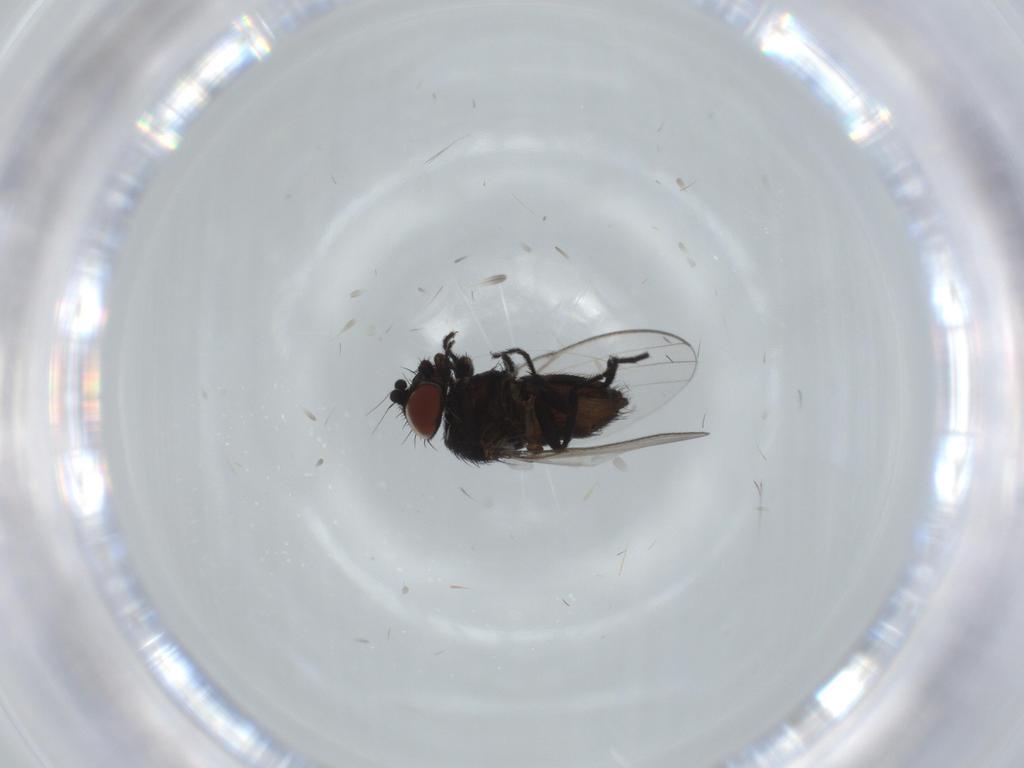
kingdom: Animalia
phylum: Arthropoda
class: Insecta
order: Diptera
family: Milichiidae
